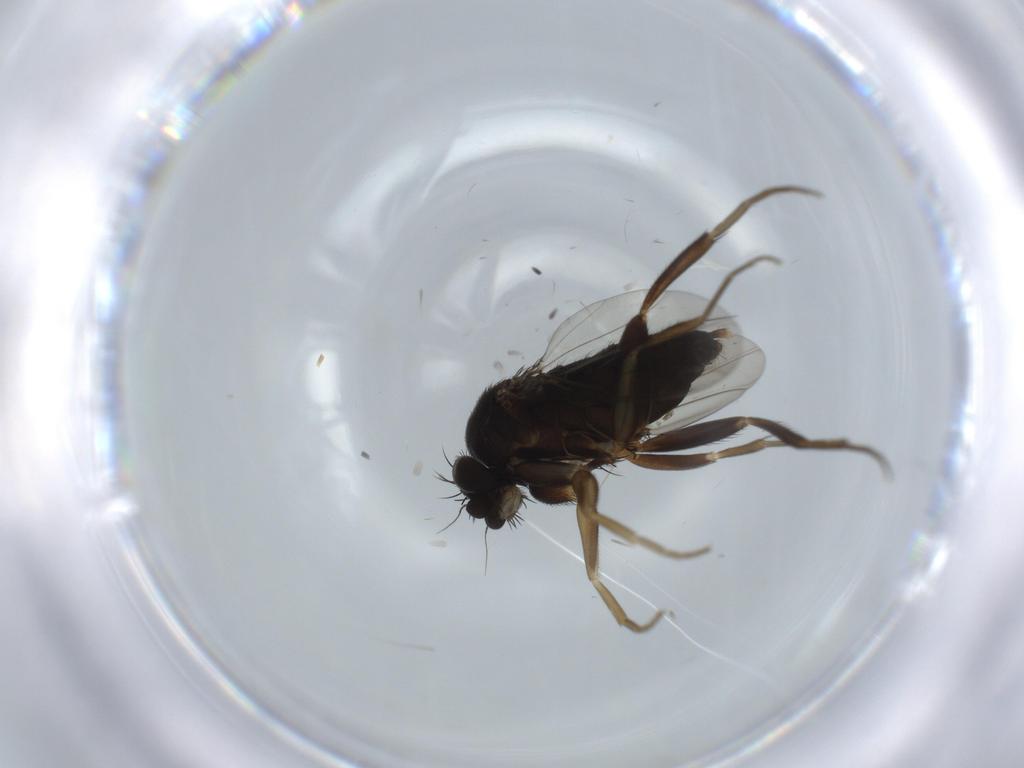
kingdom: Animalia
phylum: Arthropoda
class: Insecta
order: Diptera
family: Phoridae
